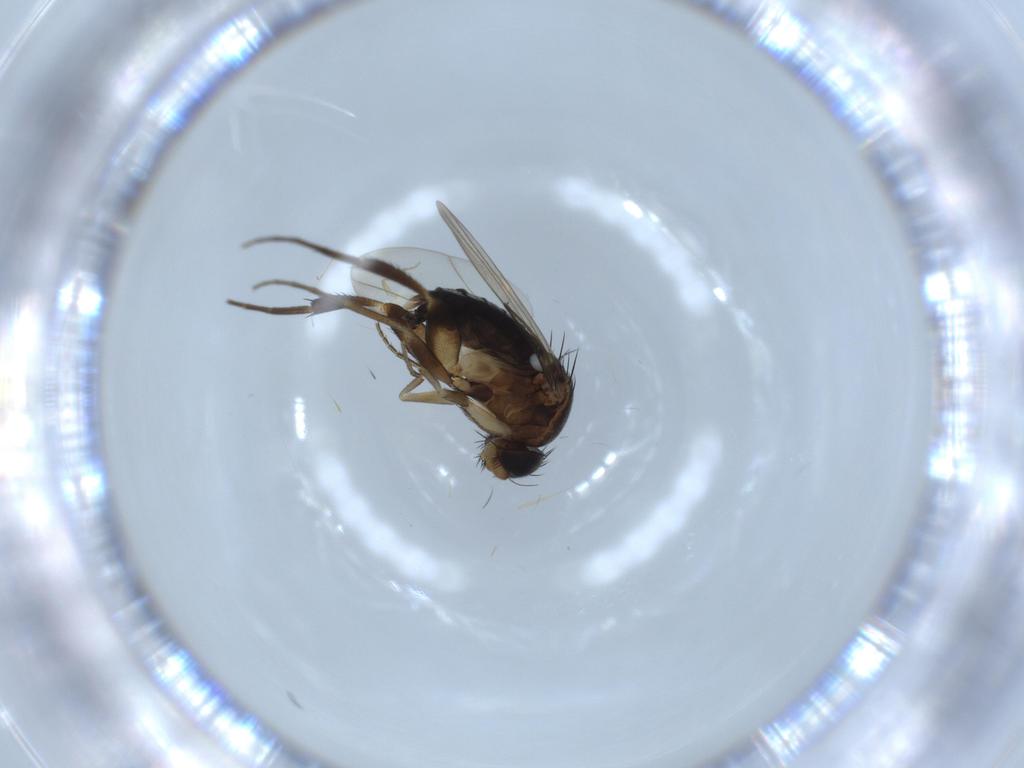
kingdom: Animalia
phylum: Arthropoda
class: Insecta
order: Diptera
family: Phoridae
